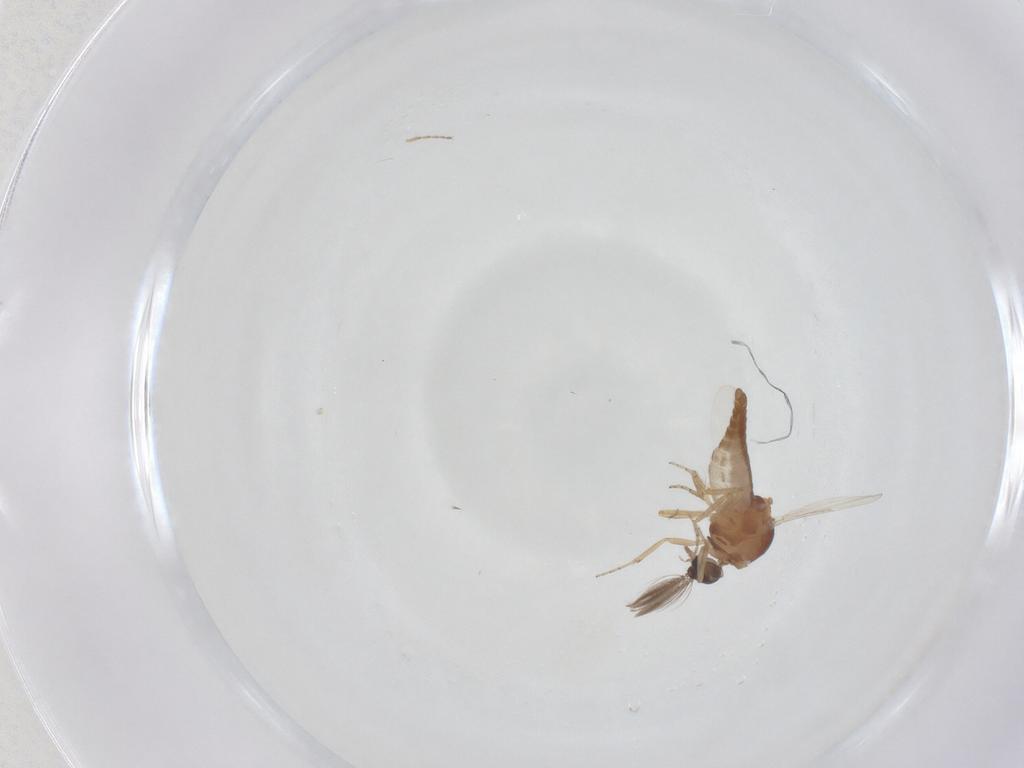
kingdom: Animalia
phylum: Arthropoda
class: Insecta
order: Diptera
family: Ceratopogonidae
